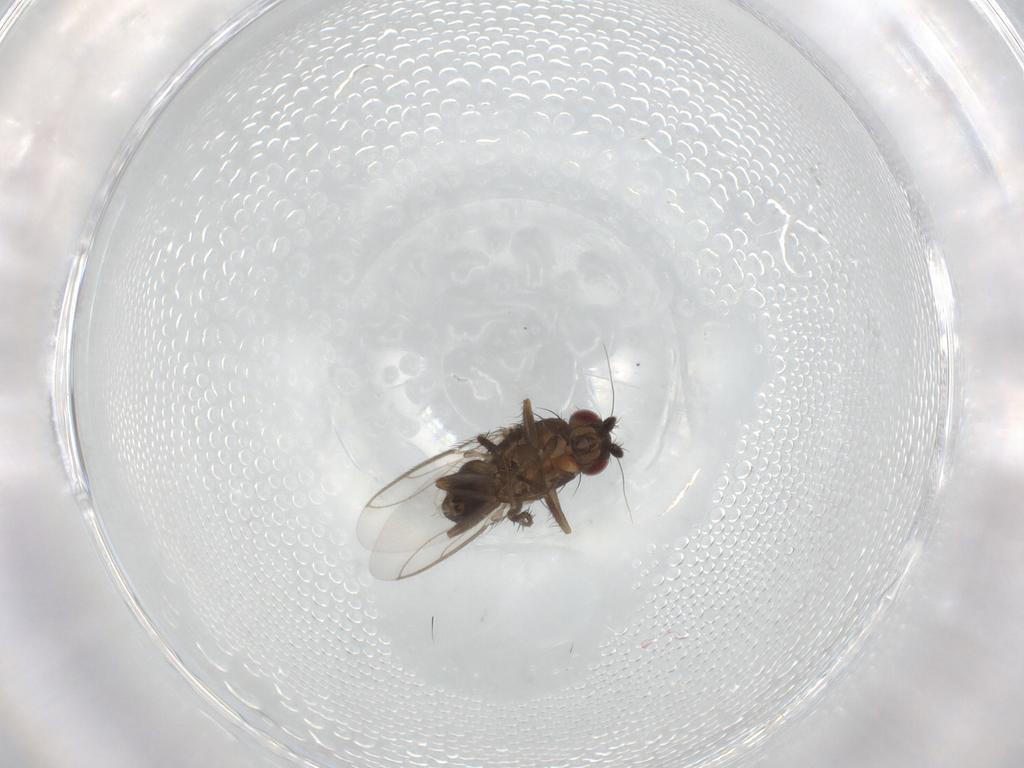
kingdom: Animalia
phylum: Arthropoda
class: Insecta
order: Diptera
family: Sphaeroceridae
